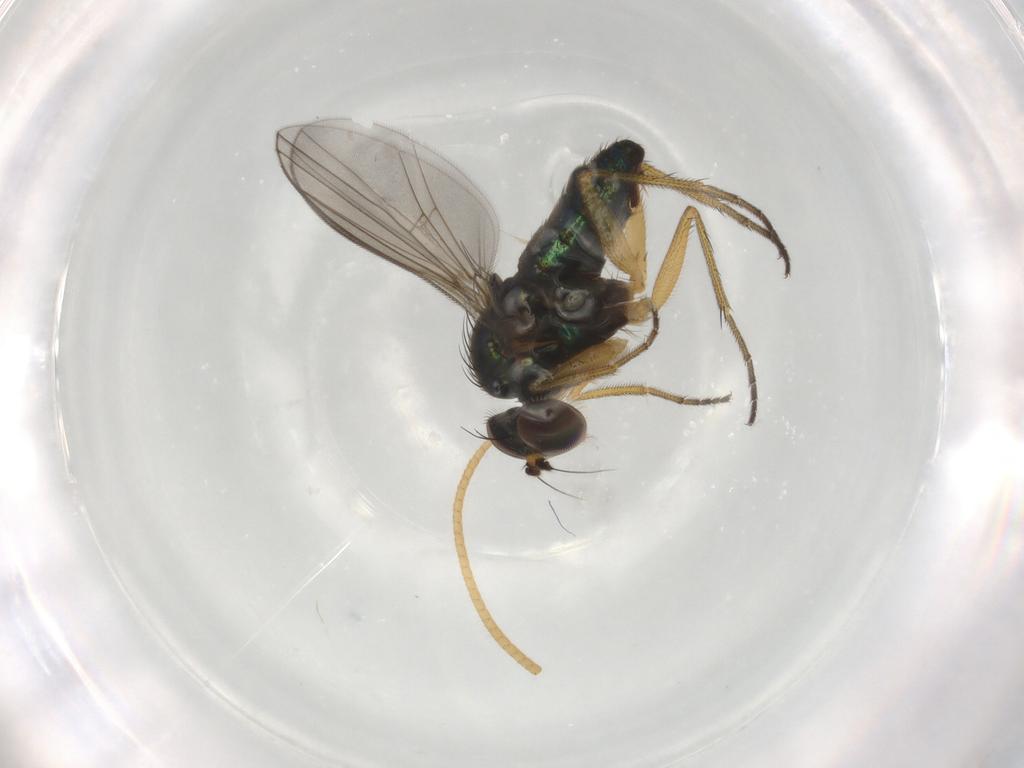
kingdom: Animalia
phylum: Arthropoda
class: Insecta
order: Diptera
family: Dolichopodidae
